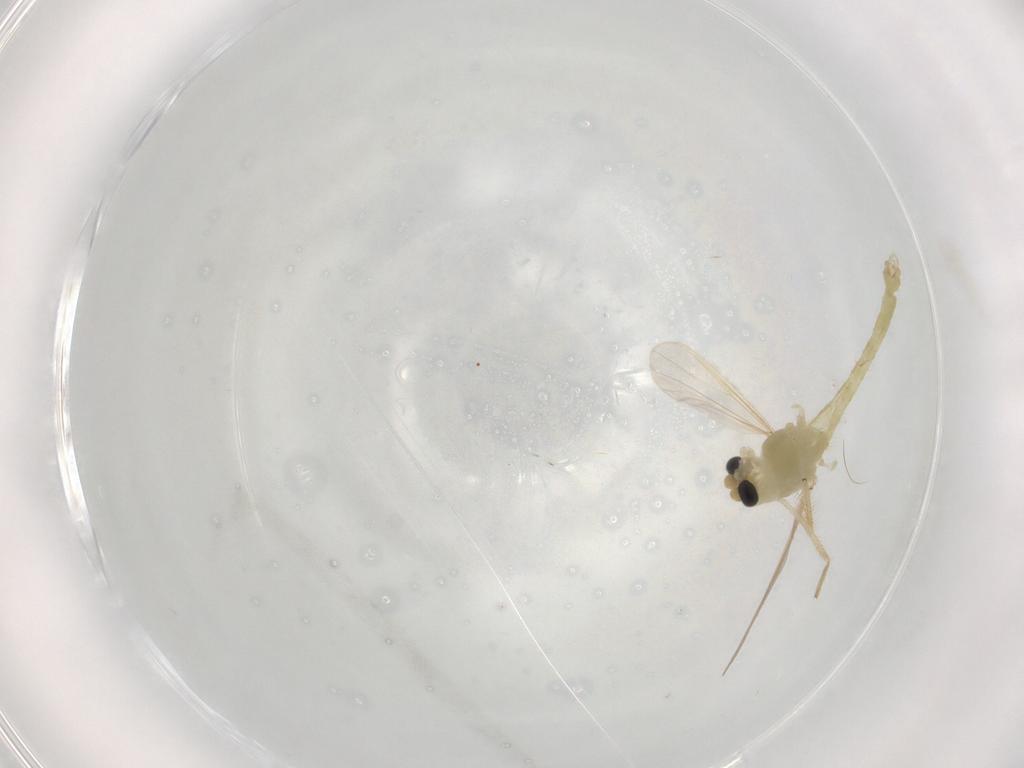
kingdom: Animalia
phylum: Arthropoda
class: Insecta
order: Diptera
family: Chironomidae
